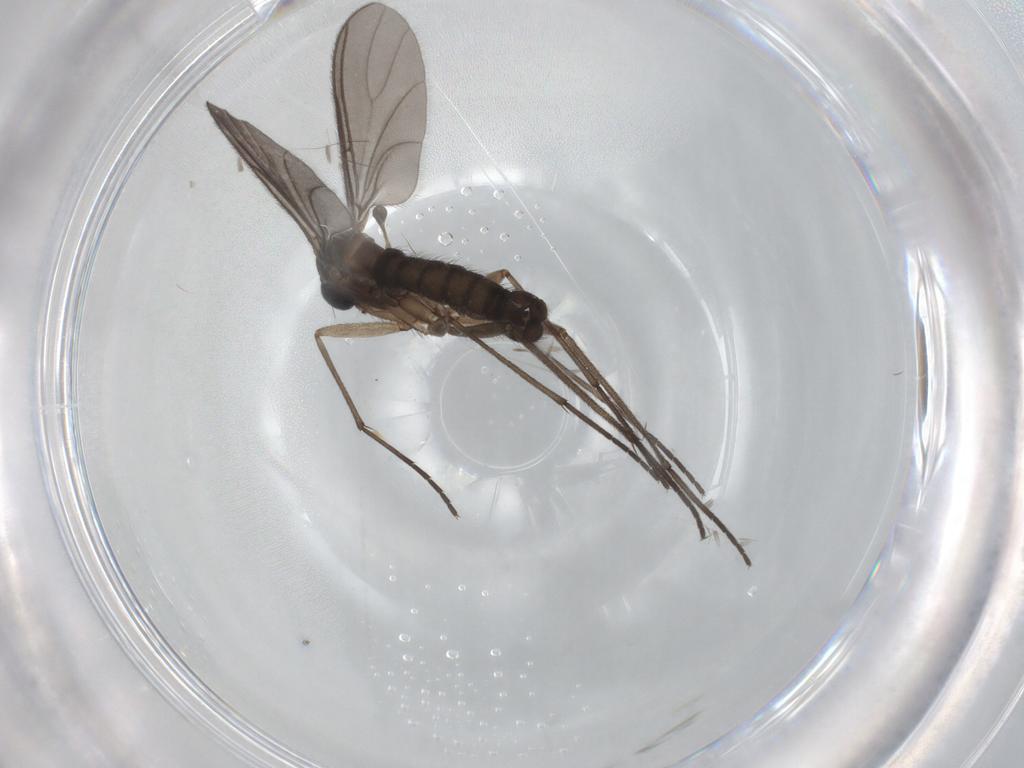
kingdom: Animalia
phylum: Arthropoda
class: Insecta
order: Diptera
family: Sciaridae
